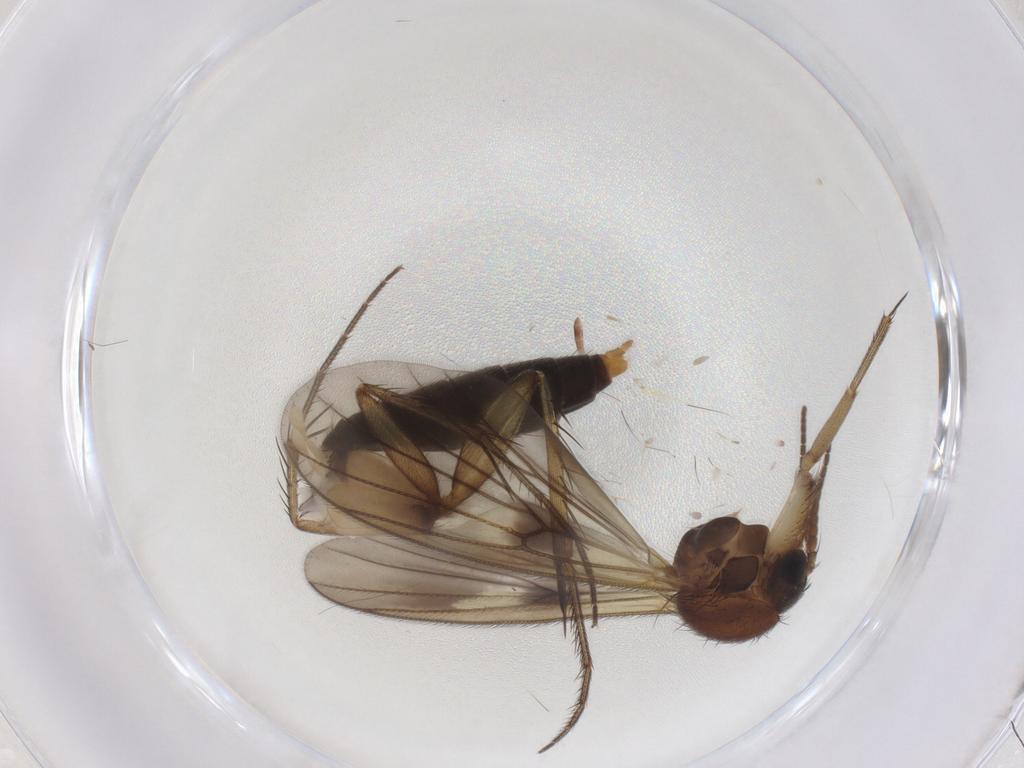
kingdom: Animalia
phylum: Arthropoda
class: Insecta
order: Diptera
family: Mycetophilidae
